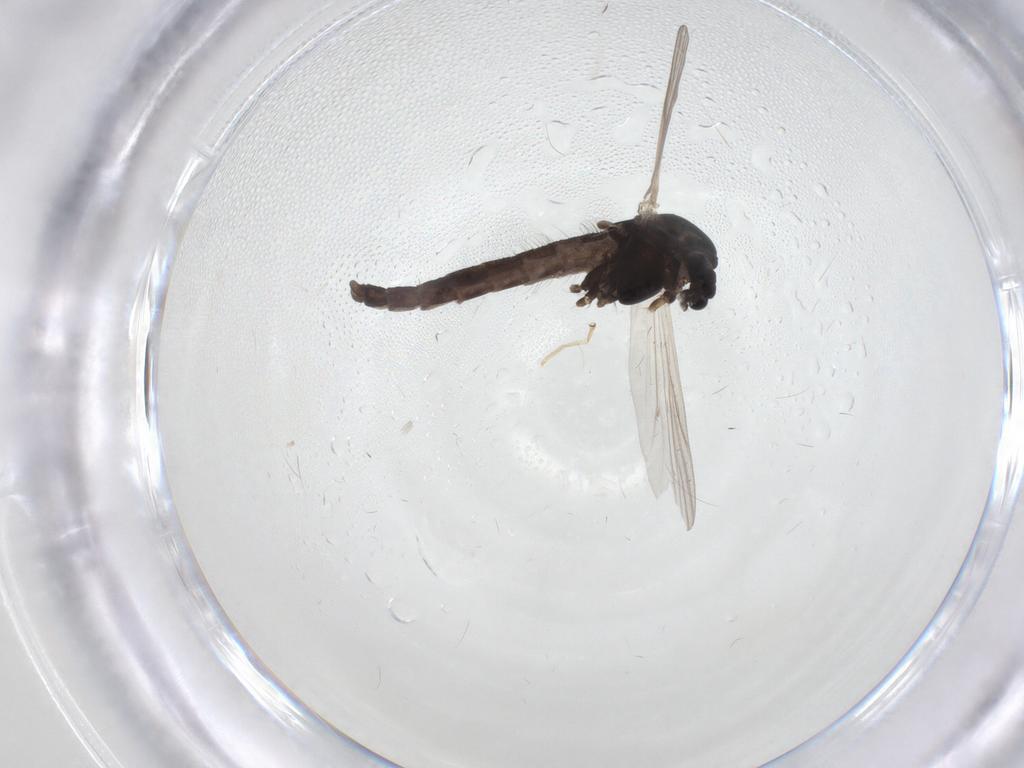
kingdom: Animalia
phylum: Arthropoda
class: Insecta
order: Diptera
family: Chironomidae
